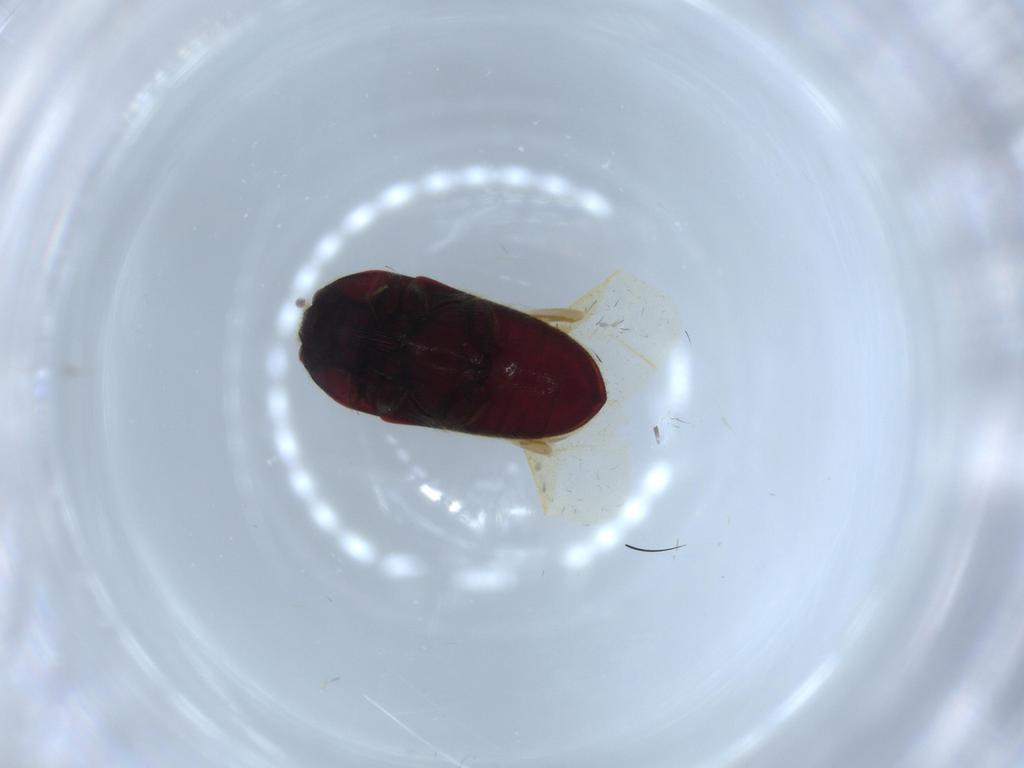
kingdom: Animalia
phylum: Arthropoda
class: Insecta
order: Coleoptera
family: Throscidae
